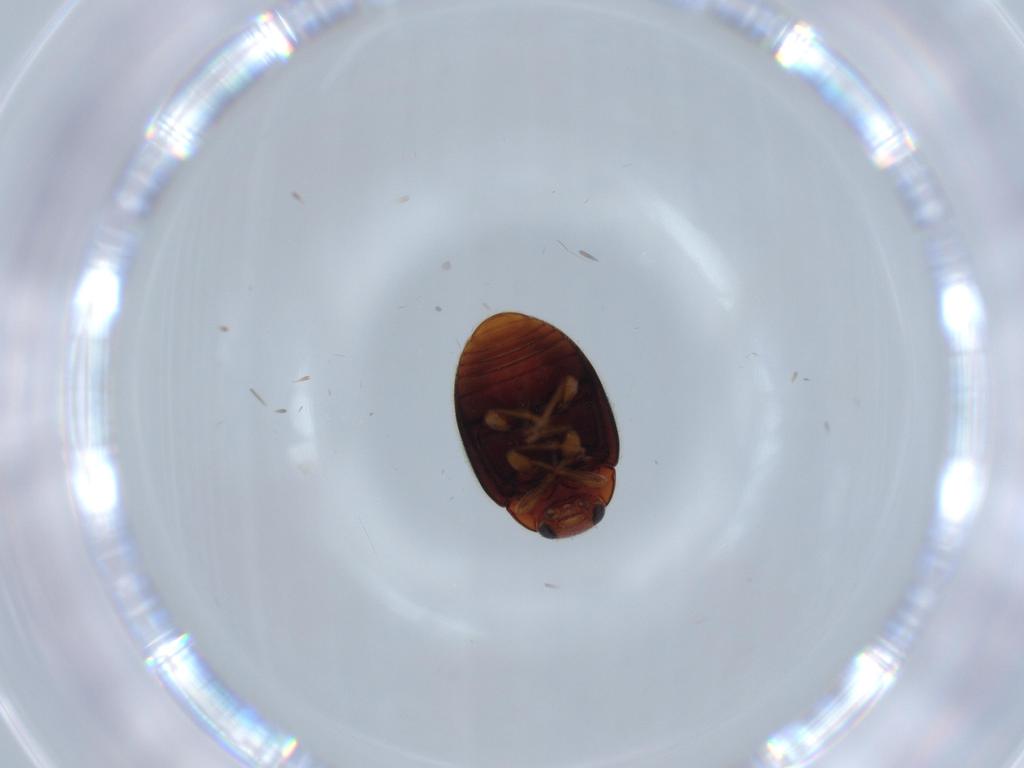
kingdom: Animalia
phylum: Arthropoda
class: Insecta
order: Coleoptera
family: Coccinellidae
